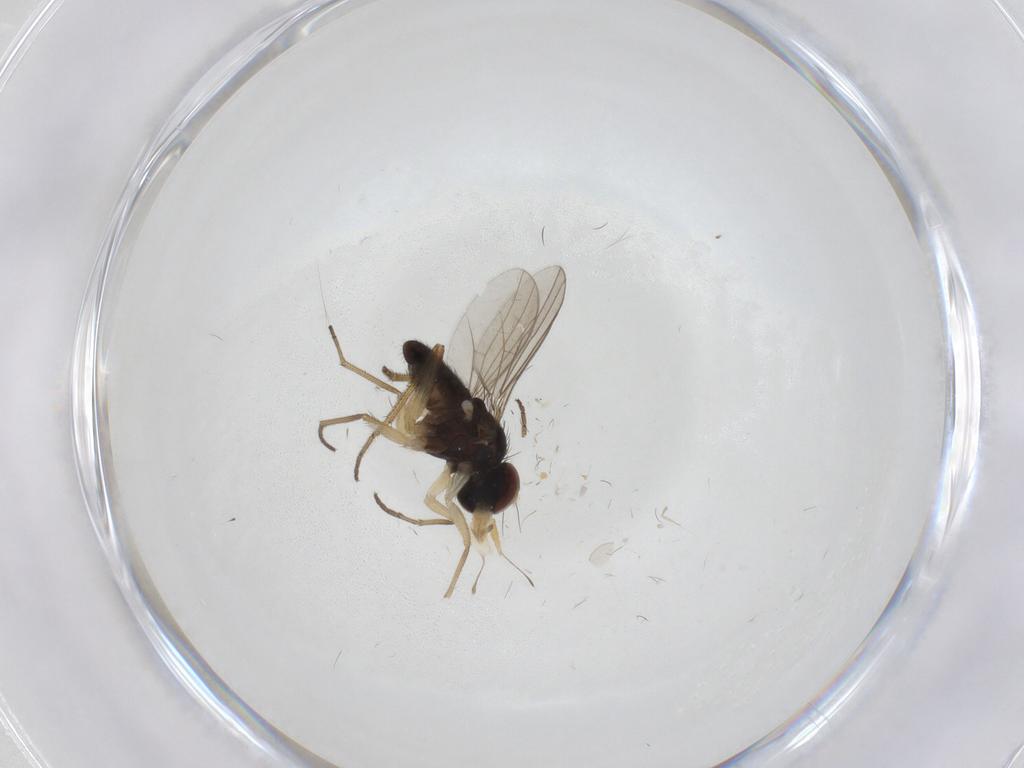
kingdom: Animalia
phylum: Arthropoda
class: Insecta
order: Diptera
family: Dolichopodidae
